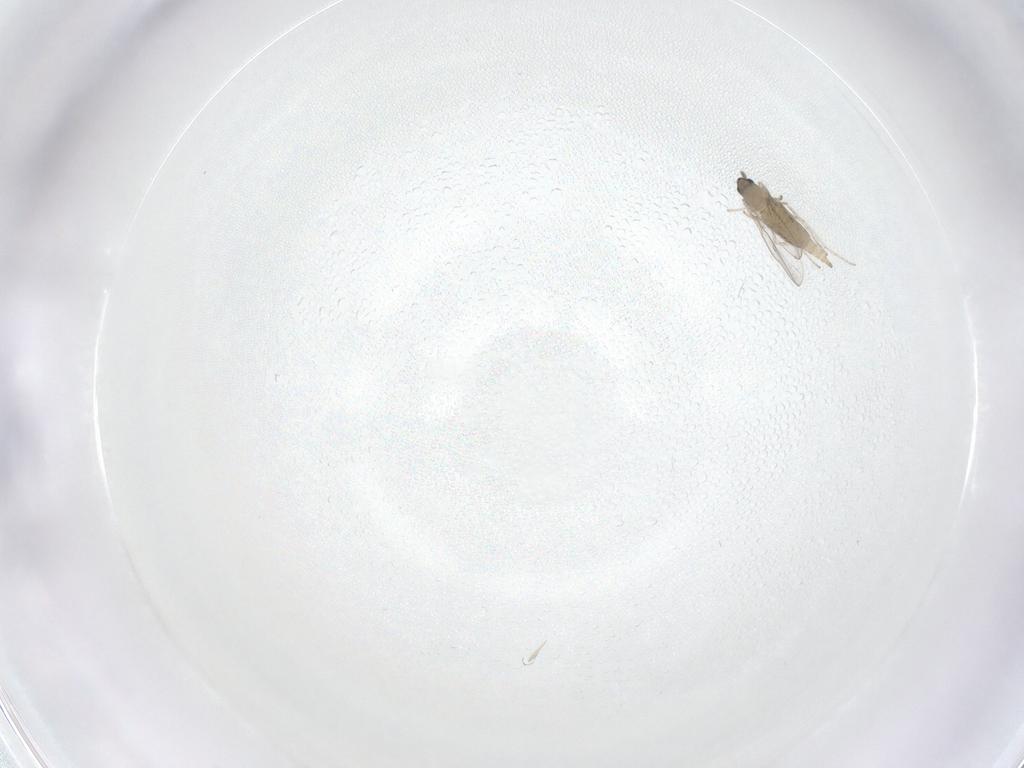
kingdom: Animalia
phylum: Arthropoda
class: Insecta
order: Diptera
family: Chironomidae
